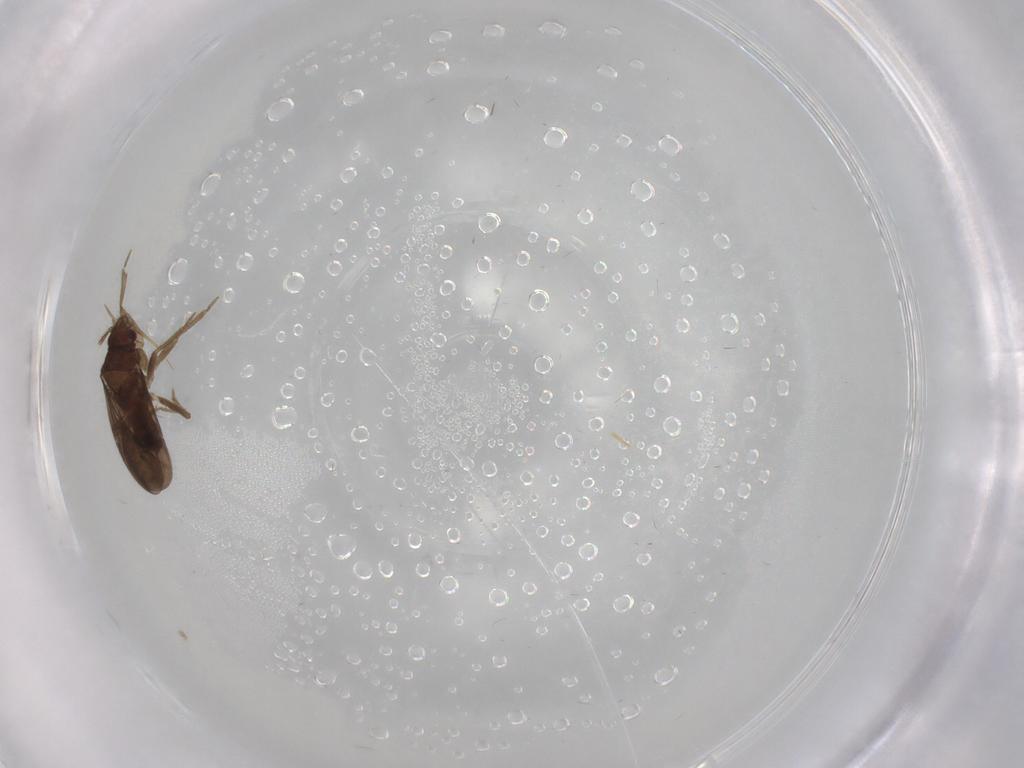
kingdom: Animalia
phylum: Arthropoda
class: Insecta
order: Hemiptera
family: Ceratocombidae
